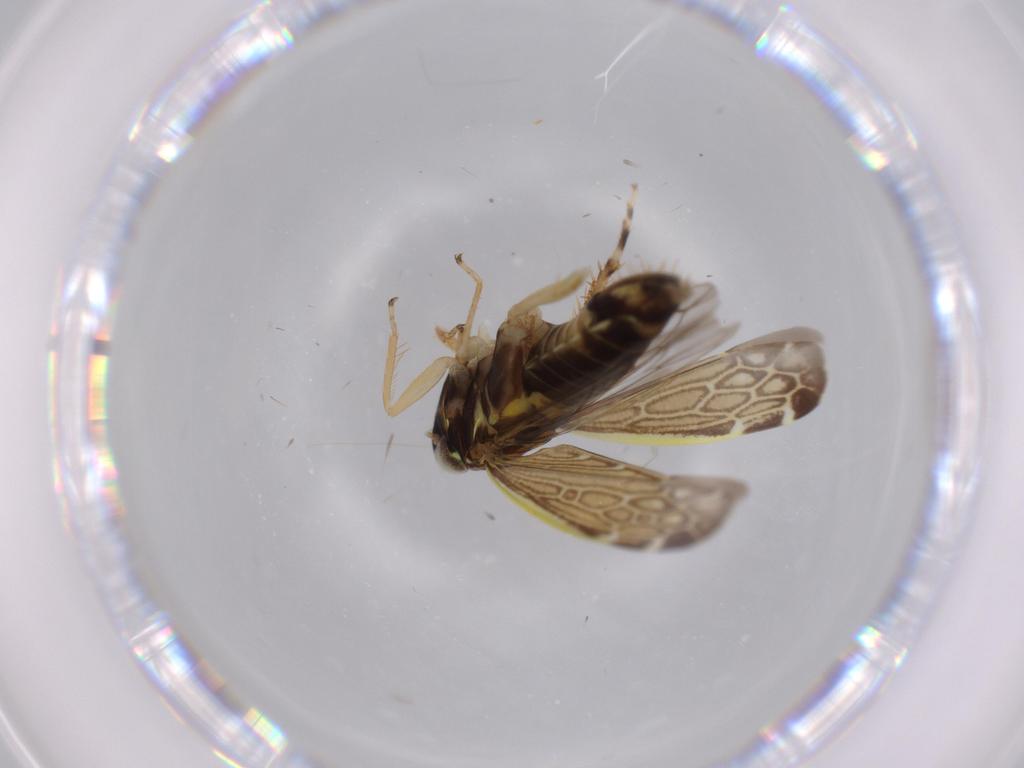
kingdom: Animalia
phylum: Arthropoda
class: Insecta
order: Hemiptera
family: Cicadellidae
